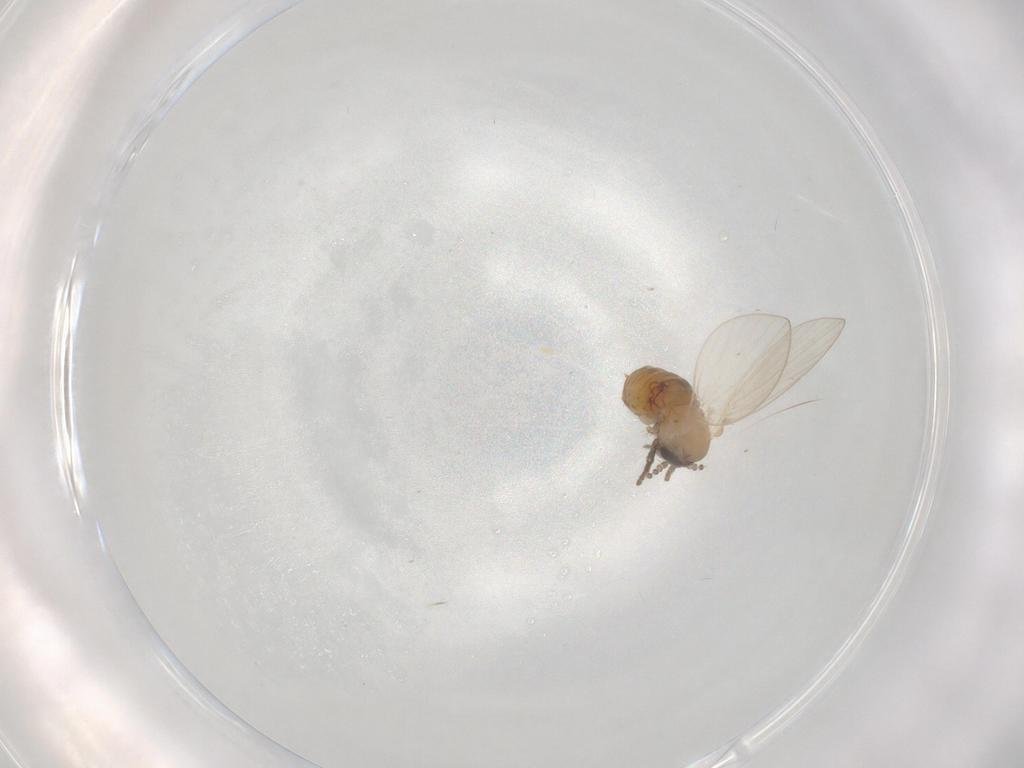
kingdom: Animalia
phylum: Arthropoda
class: Insecta
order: Diptera
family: Psychodidae
